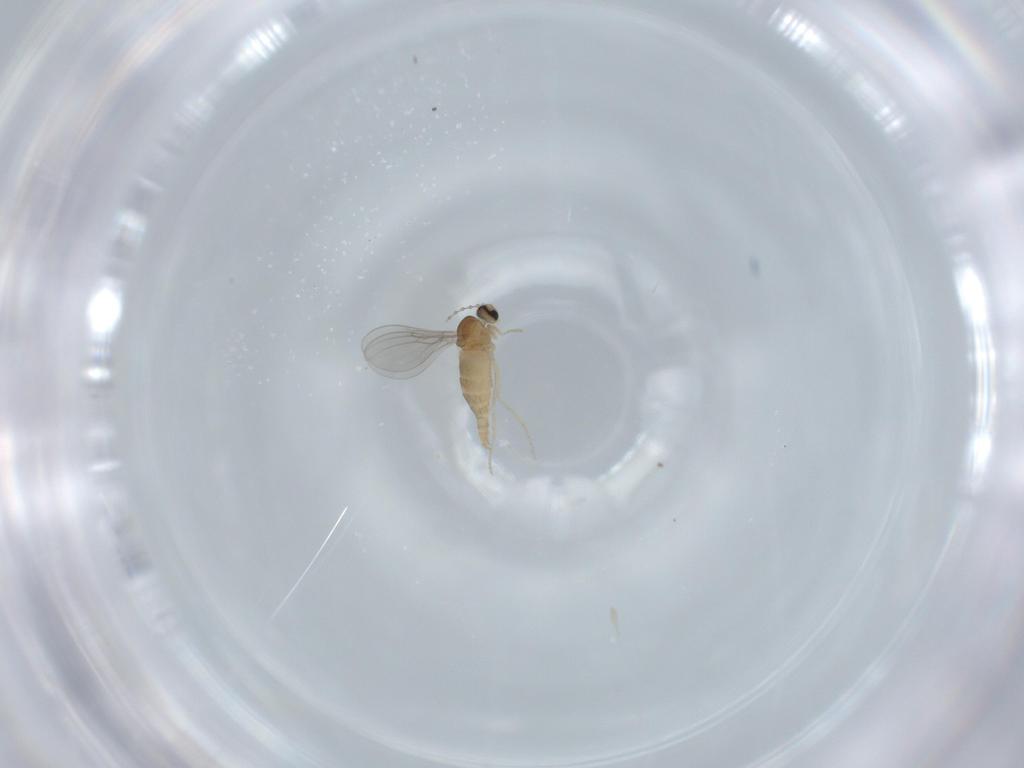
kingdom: Animalia
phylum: Arthropoda
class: Insecta
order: Diptera
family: Cecidomyiidae
